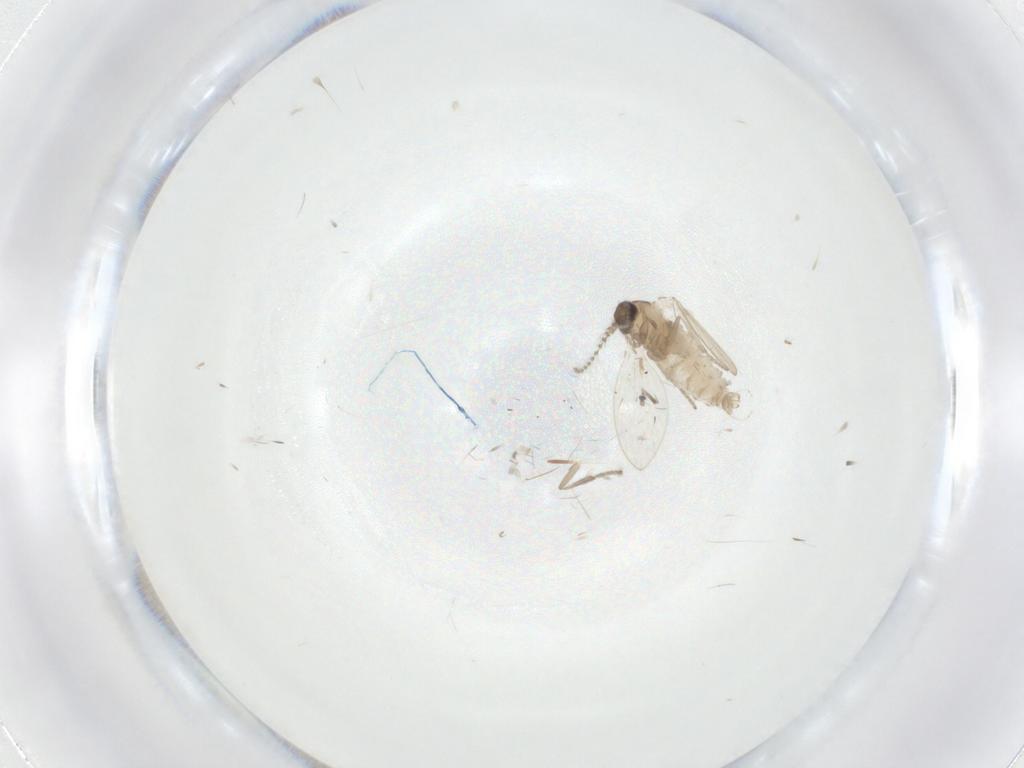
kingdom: Animalia
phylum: Arthropoda
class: Insecta
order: Diptera
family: Psychodidae
